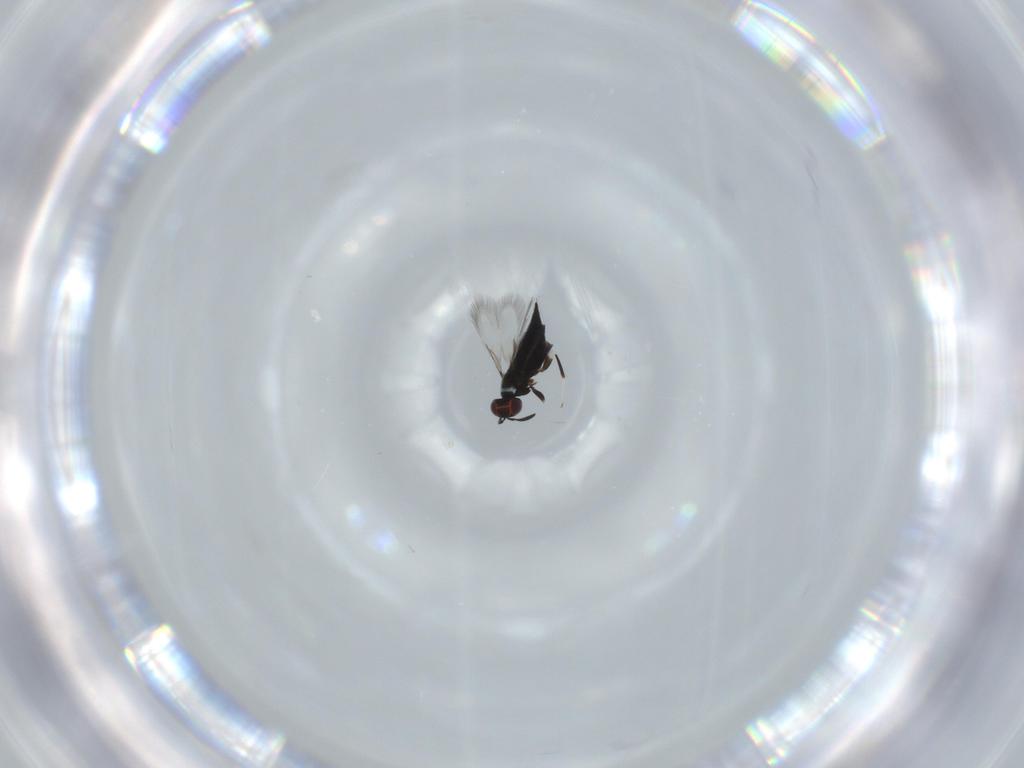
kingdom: Animalia
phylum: Arthropoda
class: Insecta
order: Hymenoptera
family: Signiphoridae
